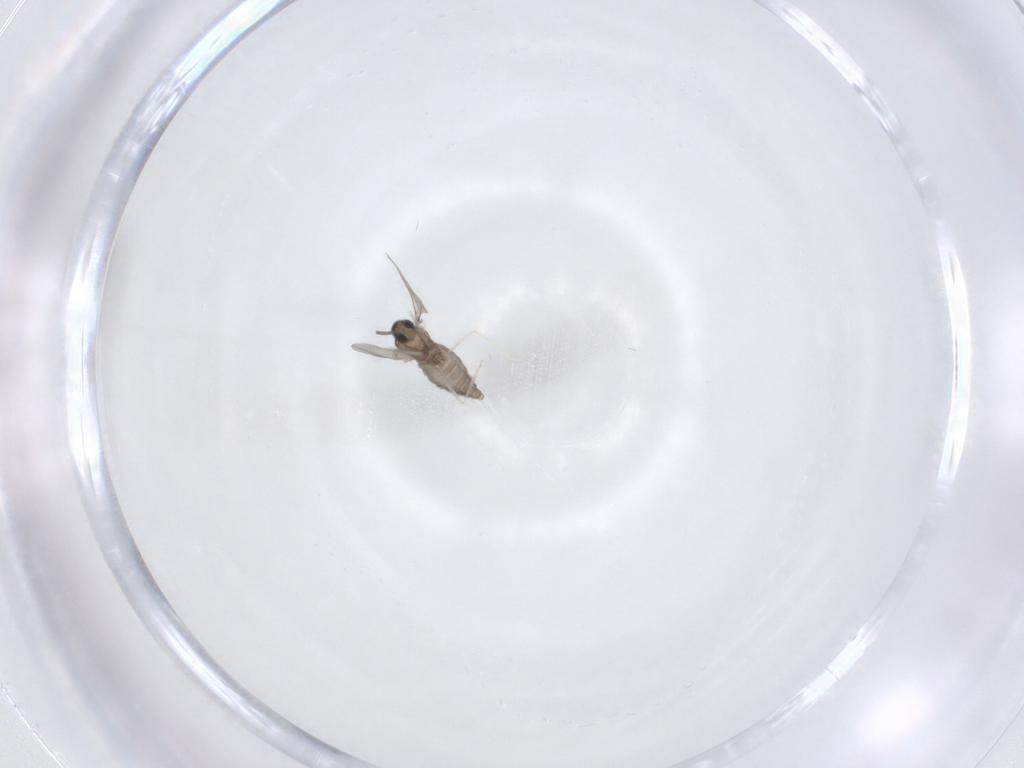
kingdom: Animalia
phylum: Arthropoda
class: Insecta
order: Diptera
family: Cecidomyiidae
